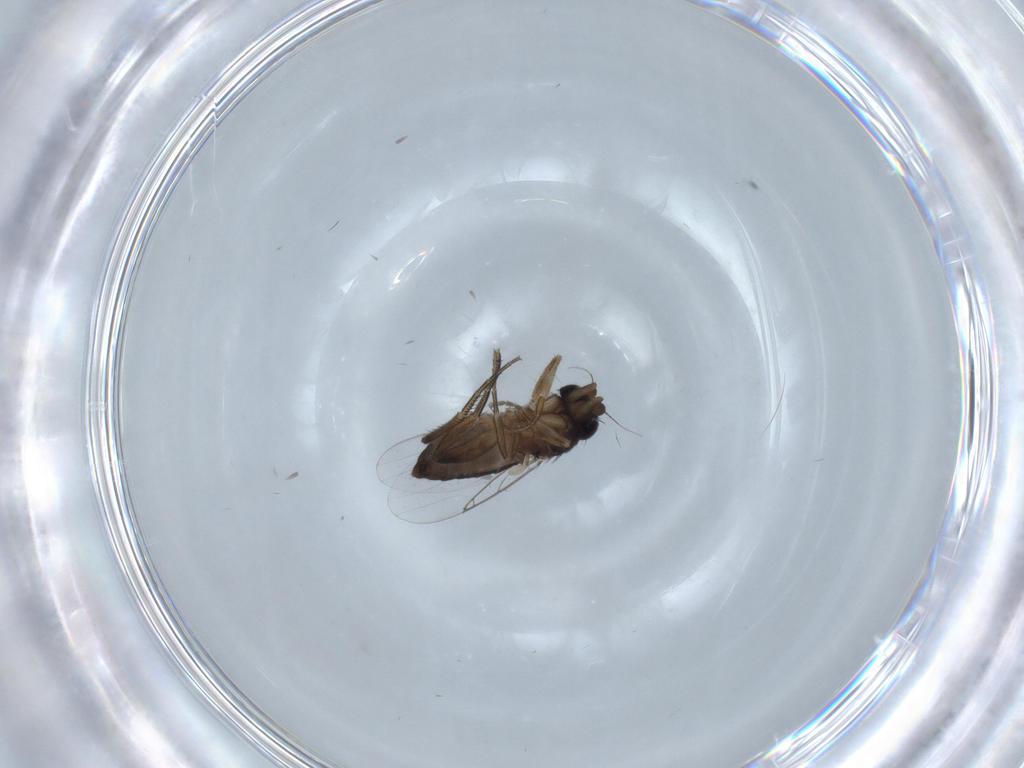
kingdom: Animalia
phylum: Arthropoda
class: Insecta
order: Diptera
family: Phoridae
